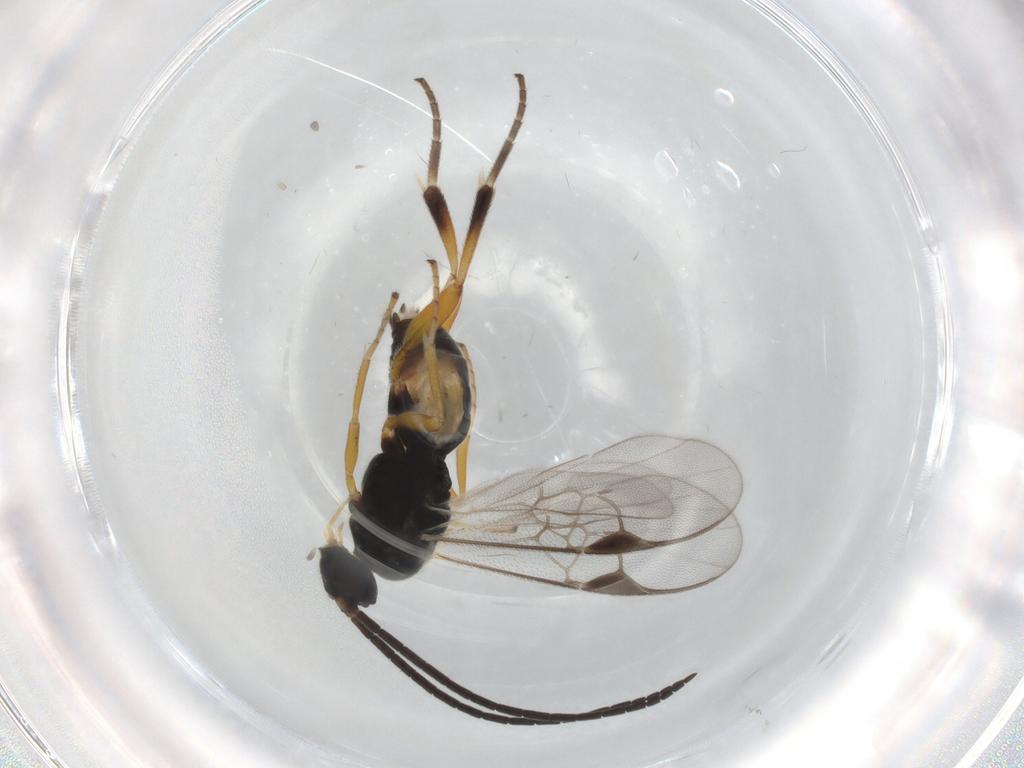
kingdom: Animalia
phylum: Arthropoda
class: Insecta
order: Hymenoptera
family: Braconidae
